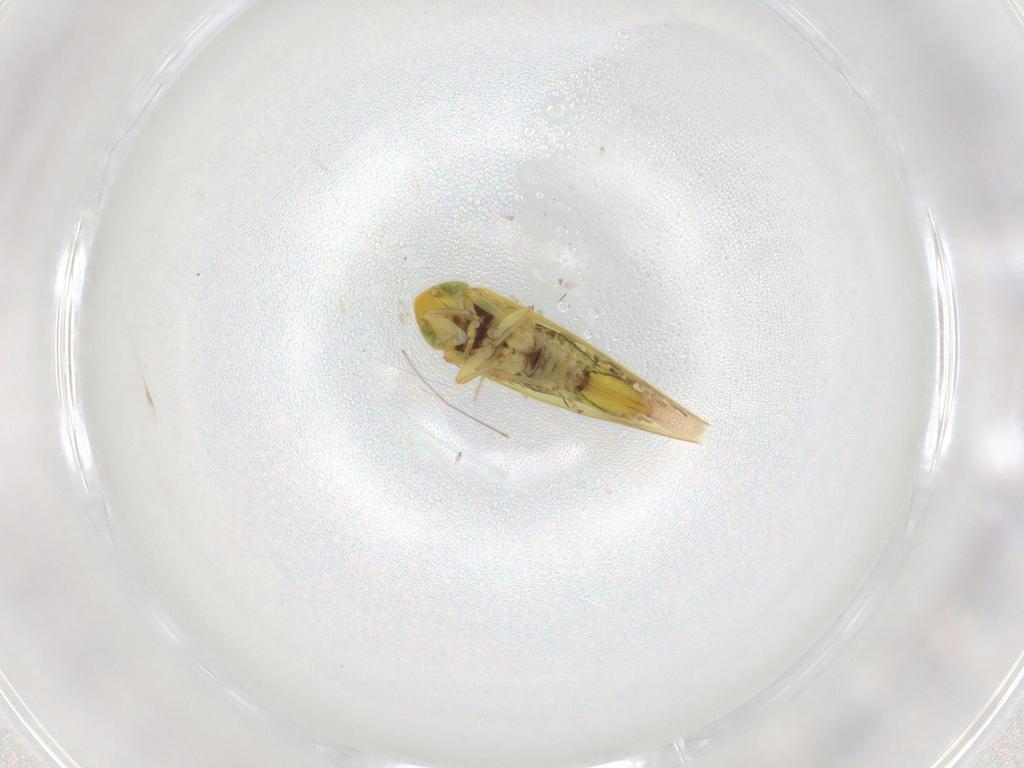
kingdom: Animalia
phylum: Arthropoda
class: Insecta
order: Hemiptera
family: Cicadellidae
